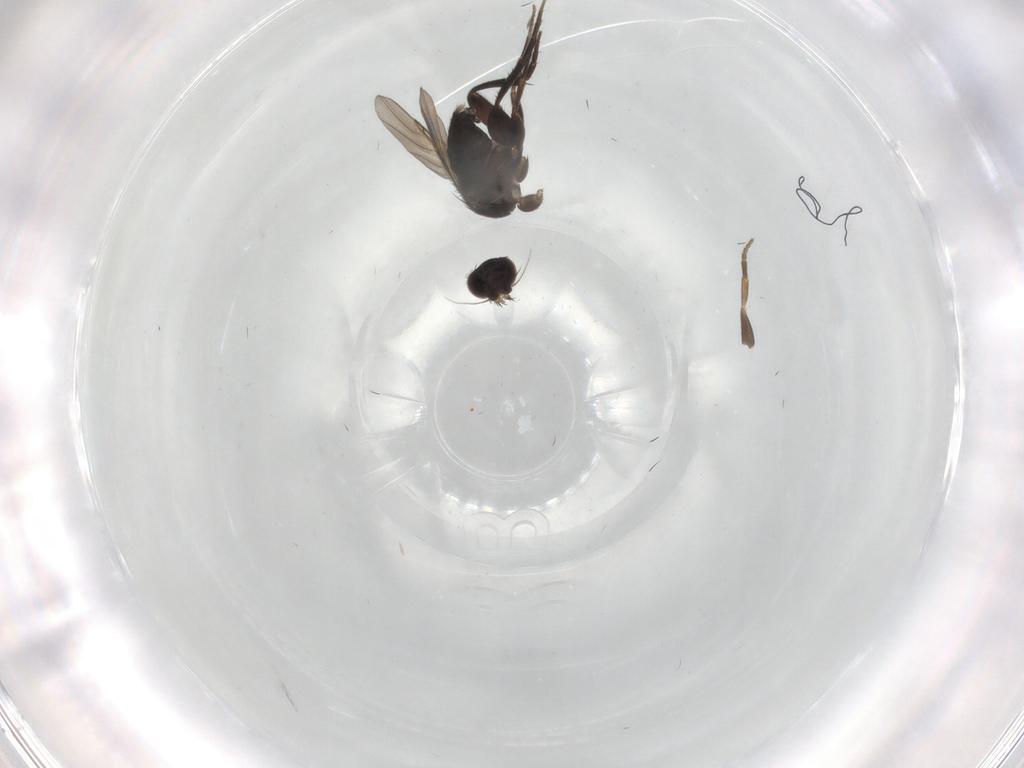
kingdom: Animalia
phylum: Arthropoda
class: Insecta
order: Diptera
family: Phoridae
